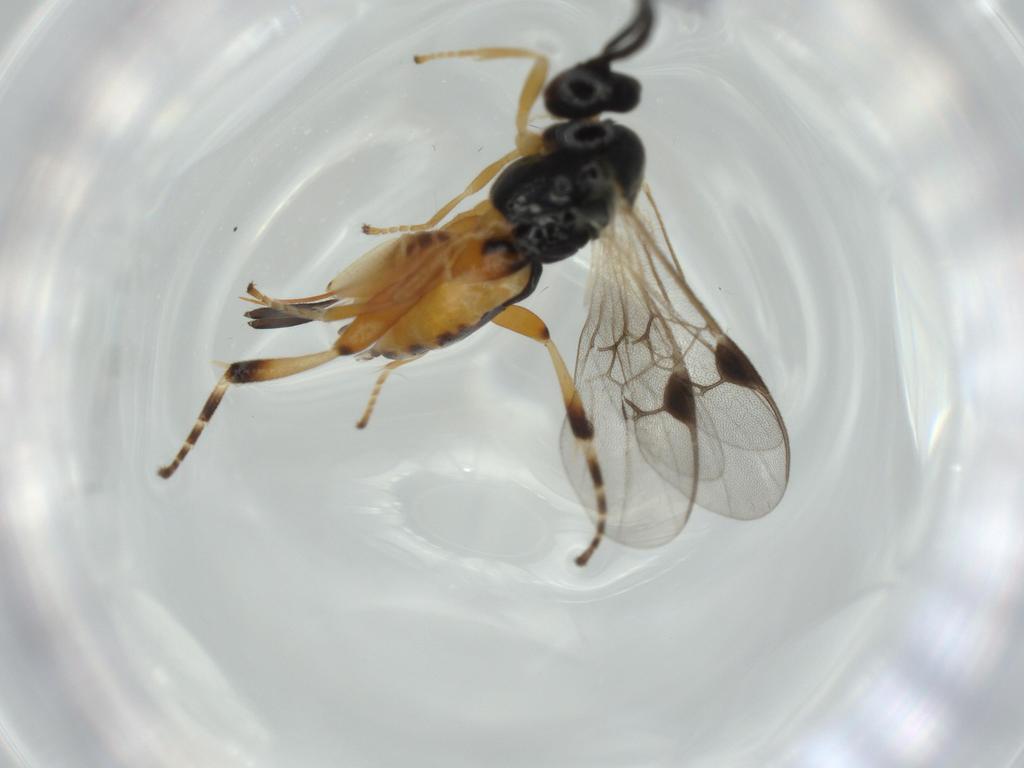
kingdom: Animalia
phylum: Arthropoda
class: Insecta
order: Hymenoptera
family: Braconidae
